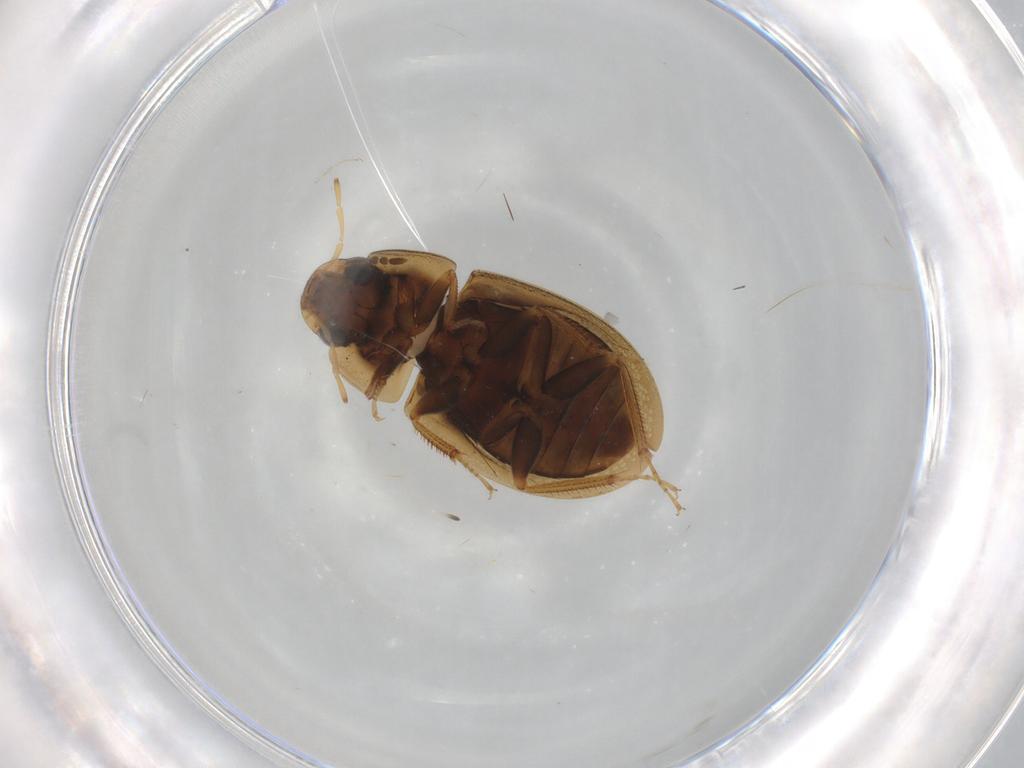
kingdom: Animalia
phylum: Arthropoda
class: Insecta
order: Coleoptera
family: Hydrophilidae
